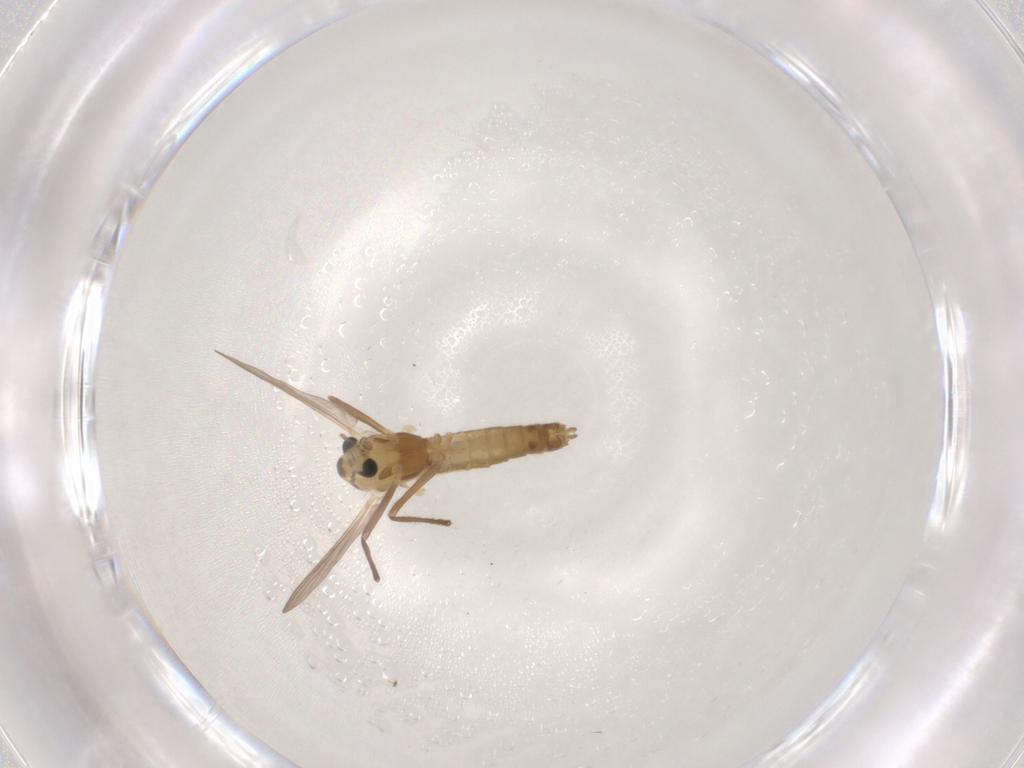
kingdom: Animalia
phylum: Arthropoda
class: Insecta
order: Diptera
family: Chironomidae
